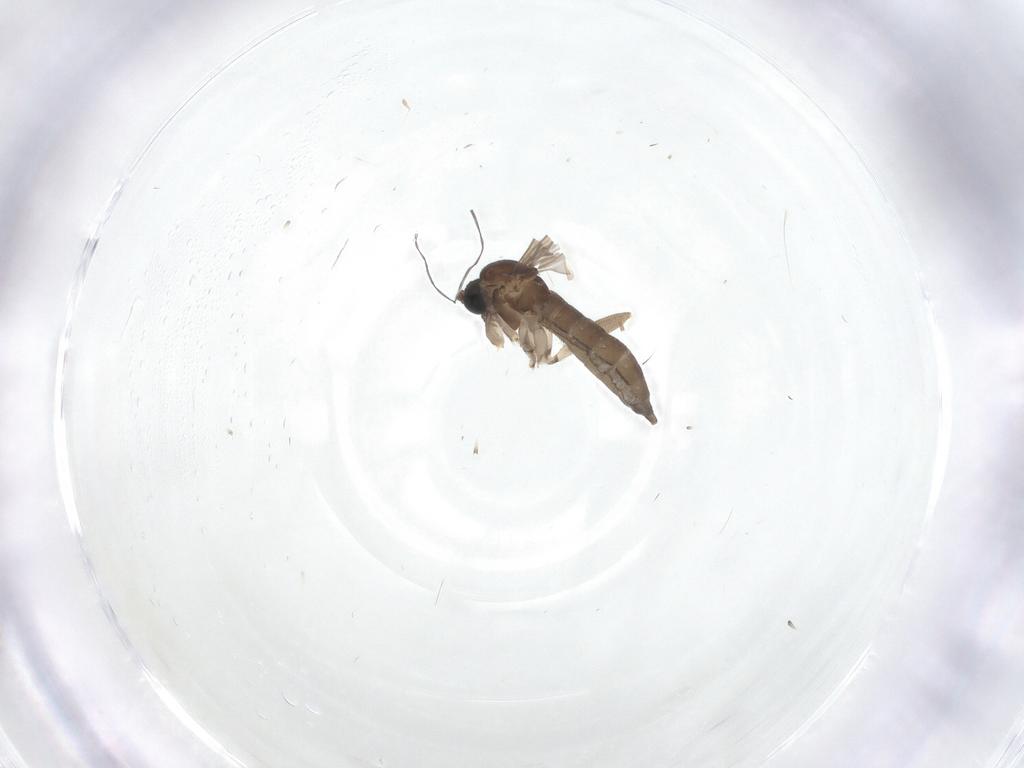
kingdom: Animalia
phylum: Arthropoda
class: Insecta
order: Diptera
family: Sciaridae
